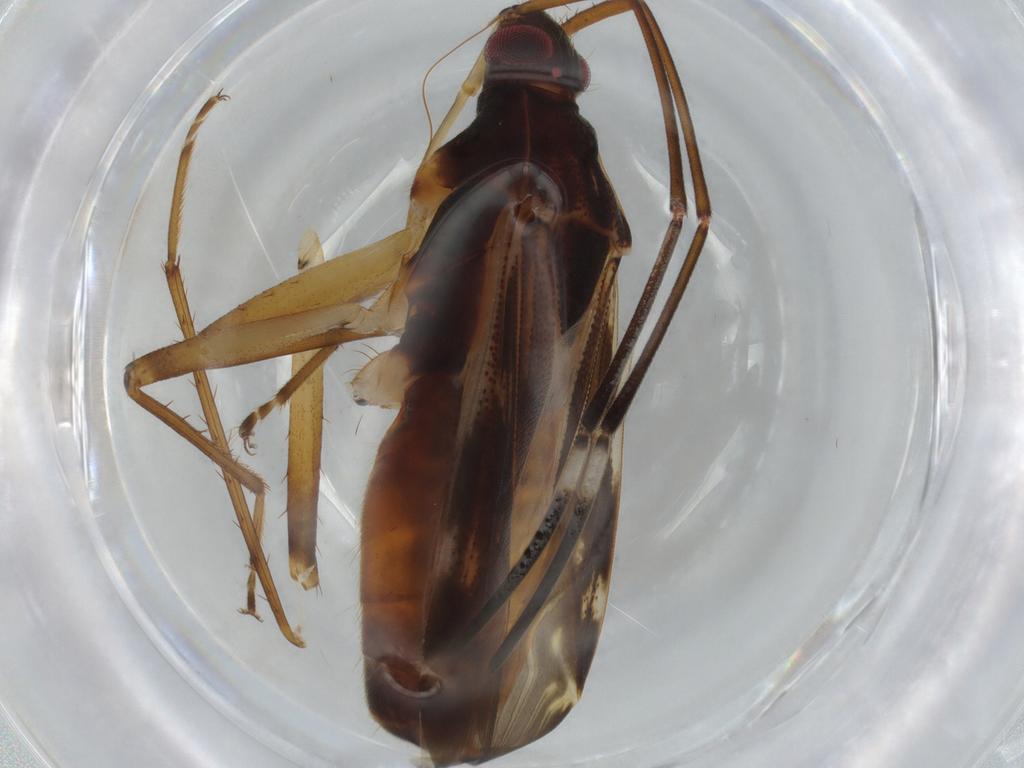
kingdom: Animalia
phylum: Arthropoda
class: Insecta
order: Hemiptera
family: Rhyparochromidae
